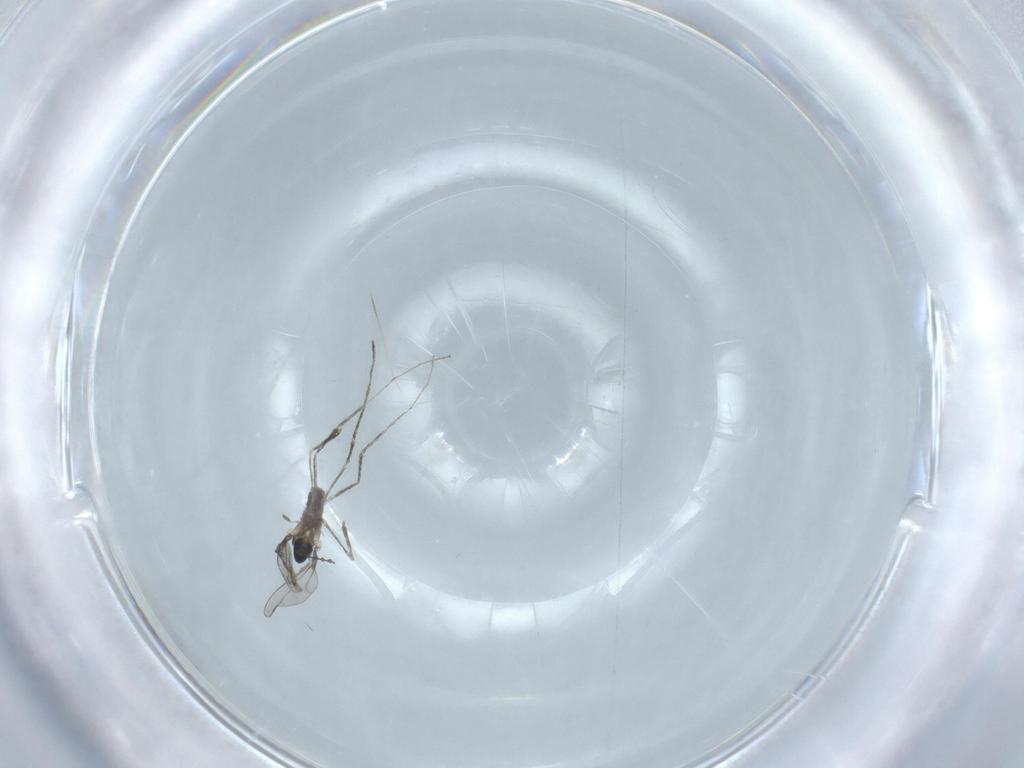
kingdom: Animalia
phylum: Arthropoda
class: Insecta
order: Diptera
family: Cecidomyiidae
